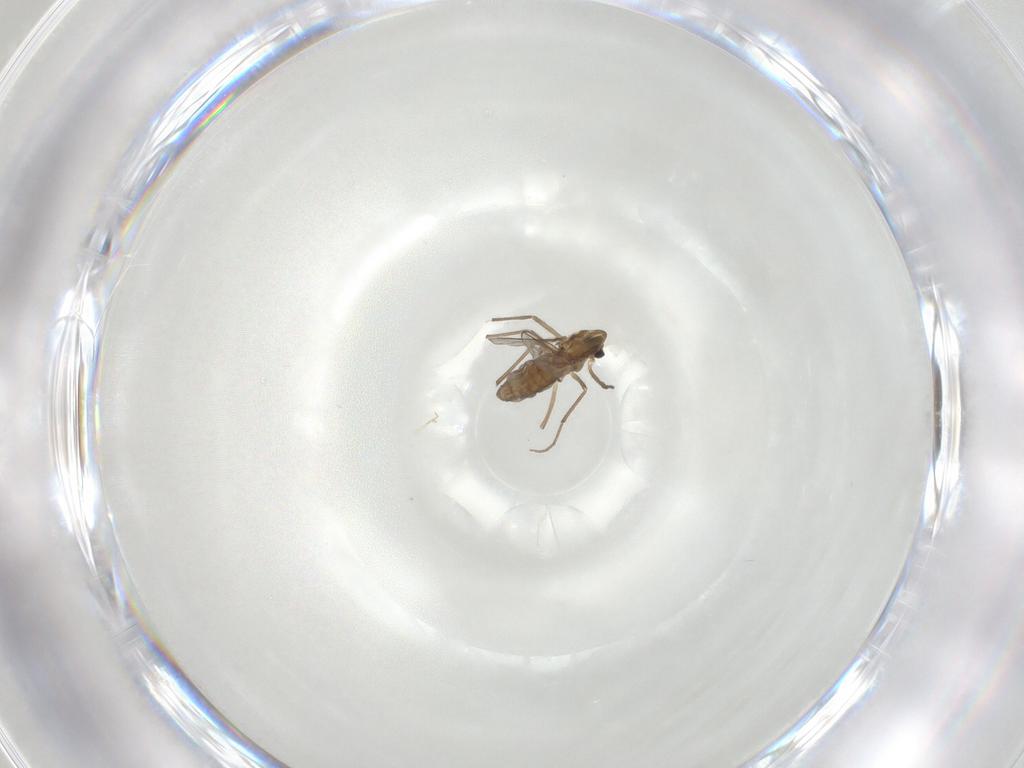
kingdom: Animalia
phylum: Arthropoda
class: Insecta
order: Diptera
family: Chironomidae
